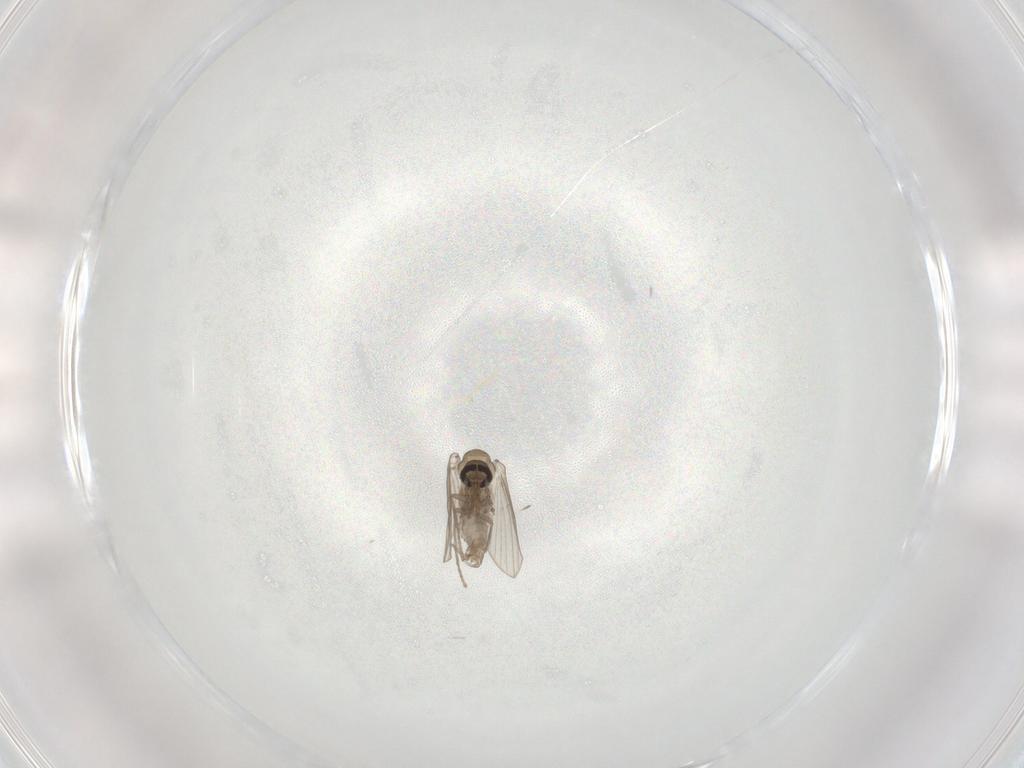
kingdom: Animalia
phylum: Arthropoda
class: Insecta
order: Diptera
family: Psychodidae
